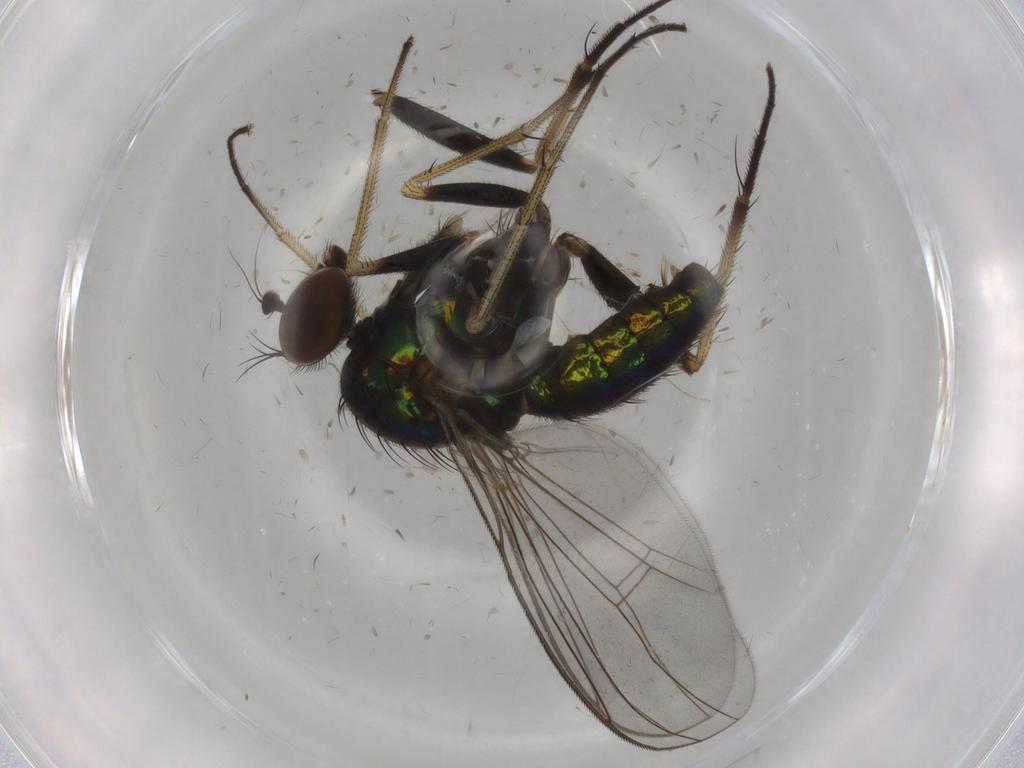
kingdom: Animalia
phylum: Arthropoda
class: Insecta
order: Diptera
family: Dolichopodidae
